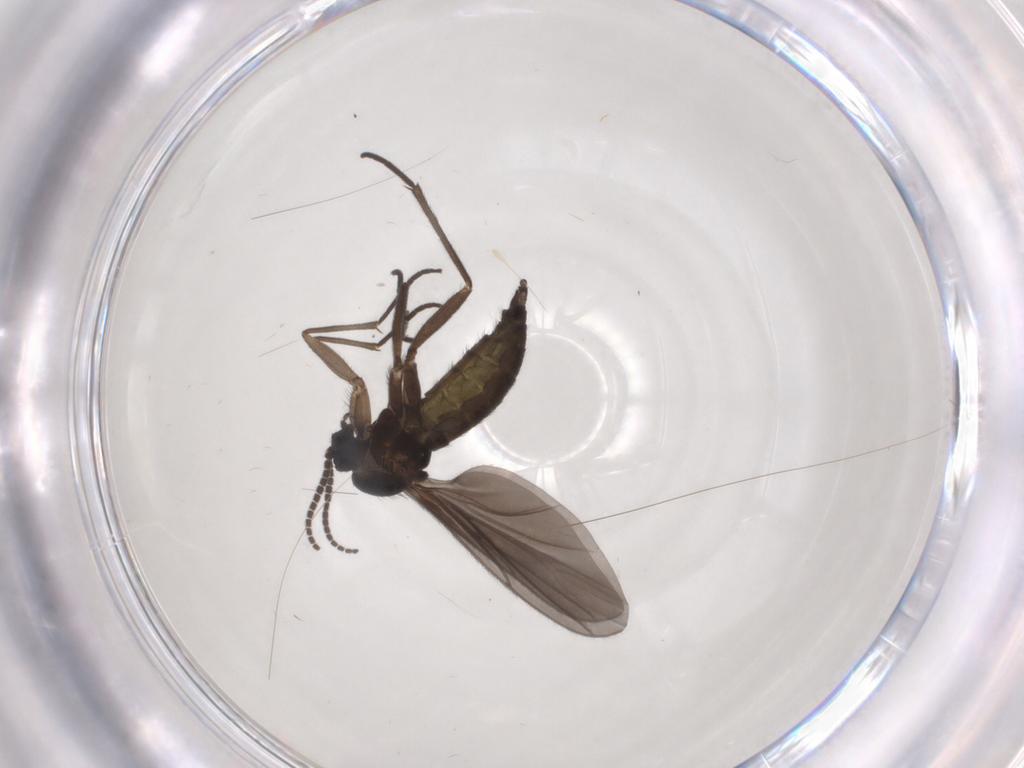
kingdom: Animalia
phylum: Arthropoda
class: Insecta
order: Diptera
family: Sciaridae
